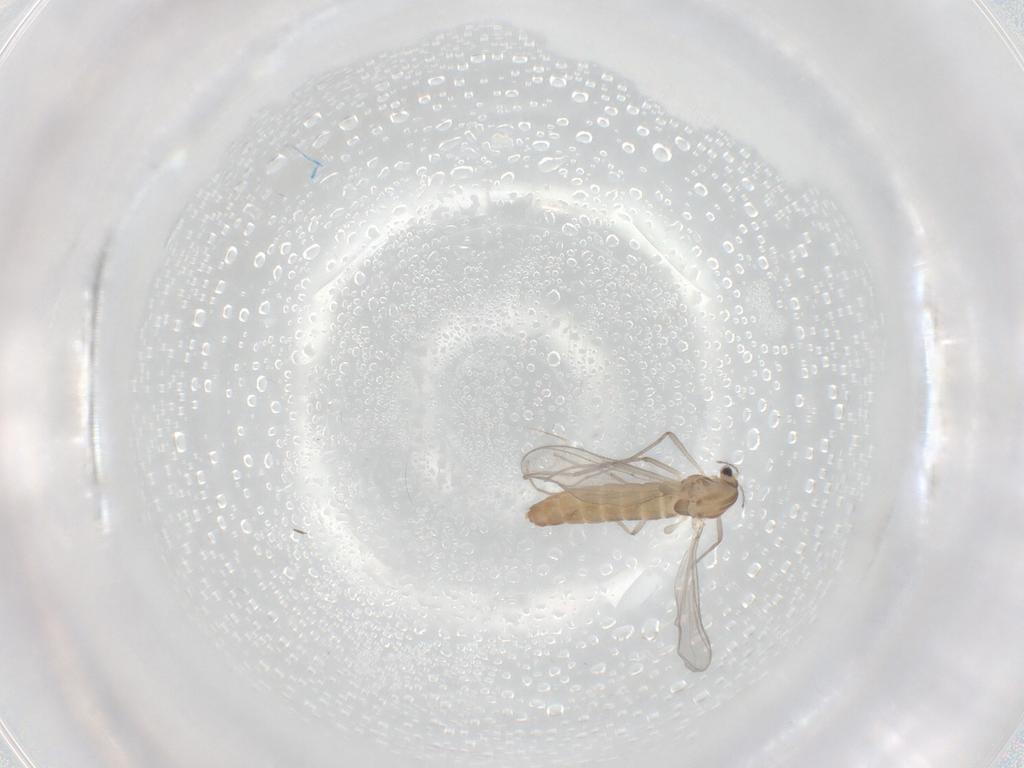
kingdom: Animalia
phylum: Arthropoda
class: Insecta
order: Diptera
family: Chironomidae
